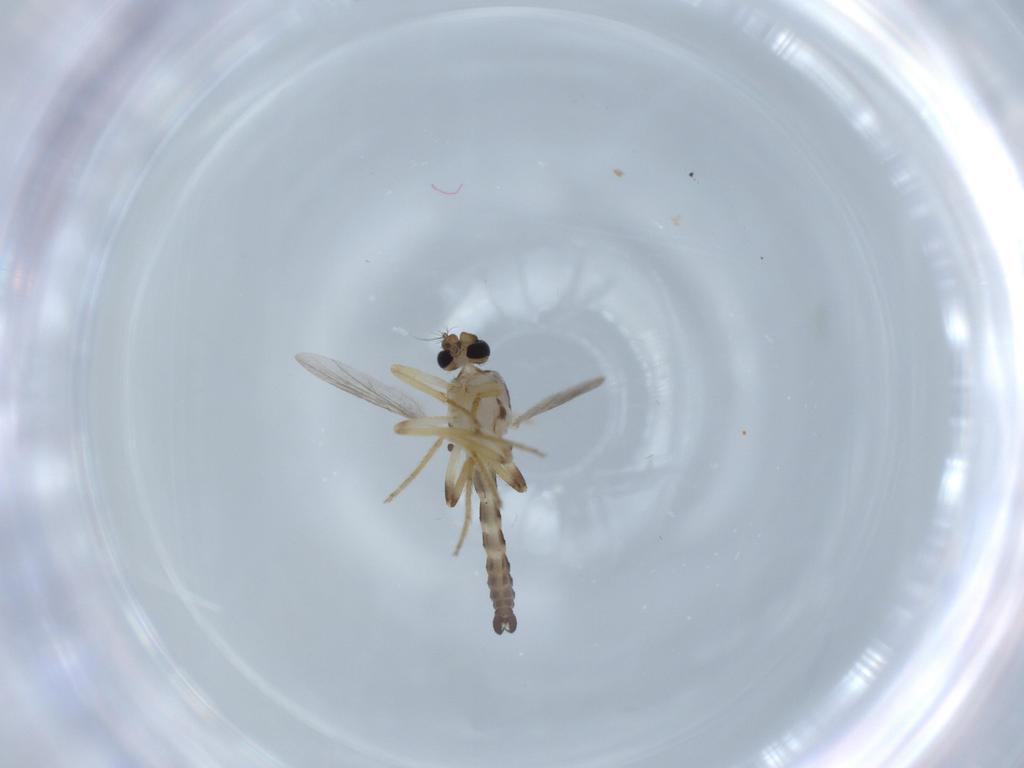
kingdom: Animalia
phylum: Arthropoda
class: Insecta
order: Diptera
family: Ceratopogonidae
